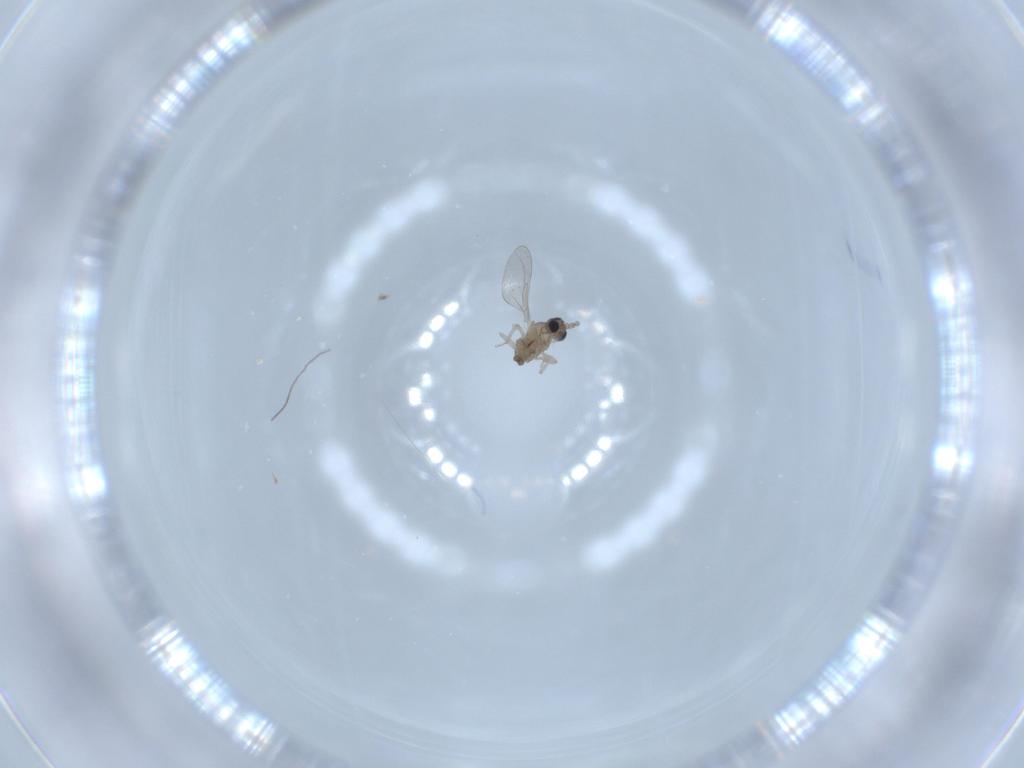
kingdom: Animalia
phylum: Arthropoda
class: Insecta
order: Diptera
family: Cecidomyiidae
